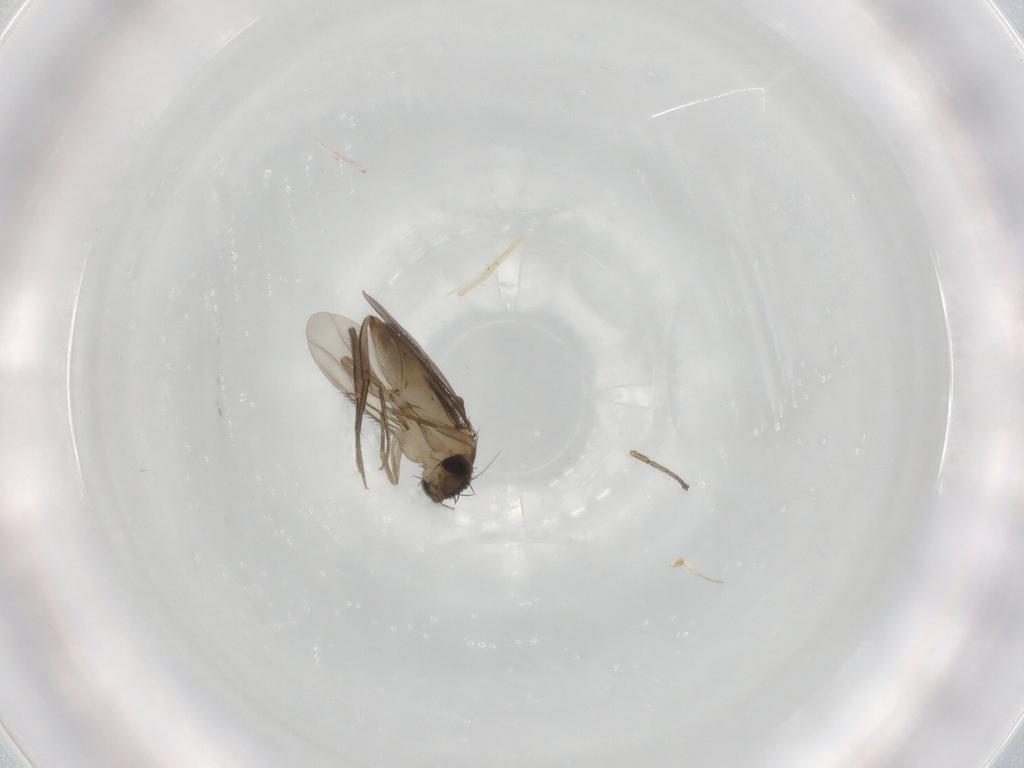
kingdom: Animalia
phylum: Arthropoda
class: Insecta
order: Diptera
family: Phoridae
